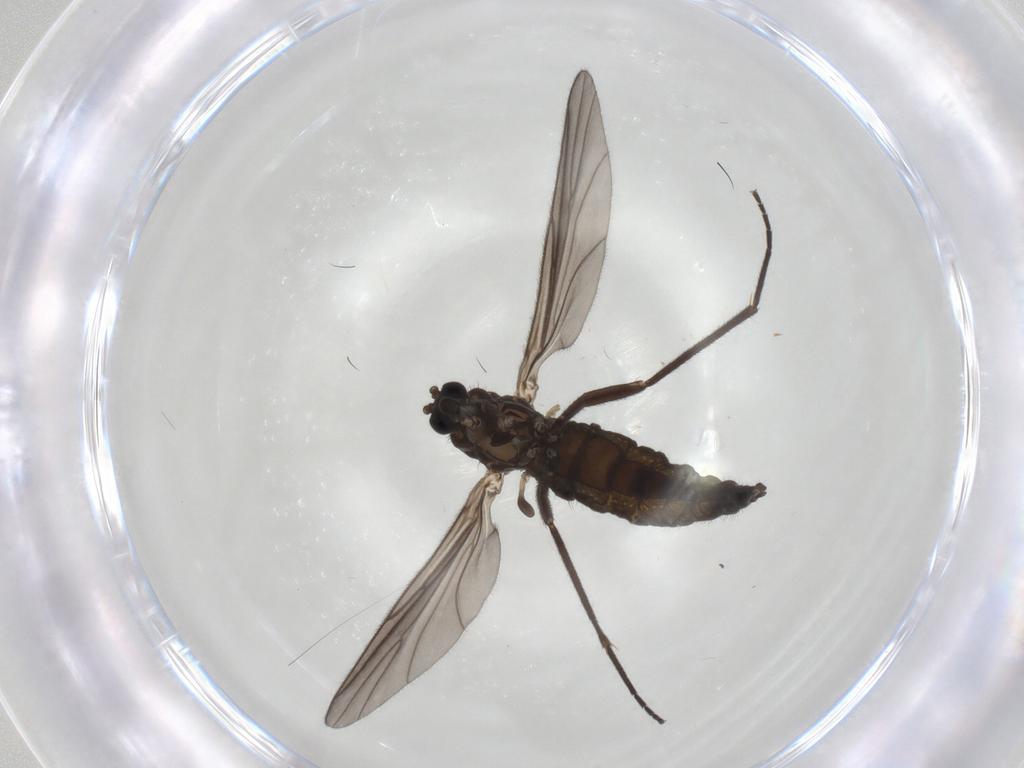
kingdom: Animalia
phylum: Arthropoda
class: Insecta
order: Diptera
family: Sciaridae
